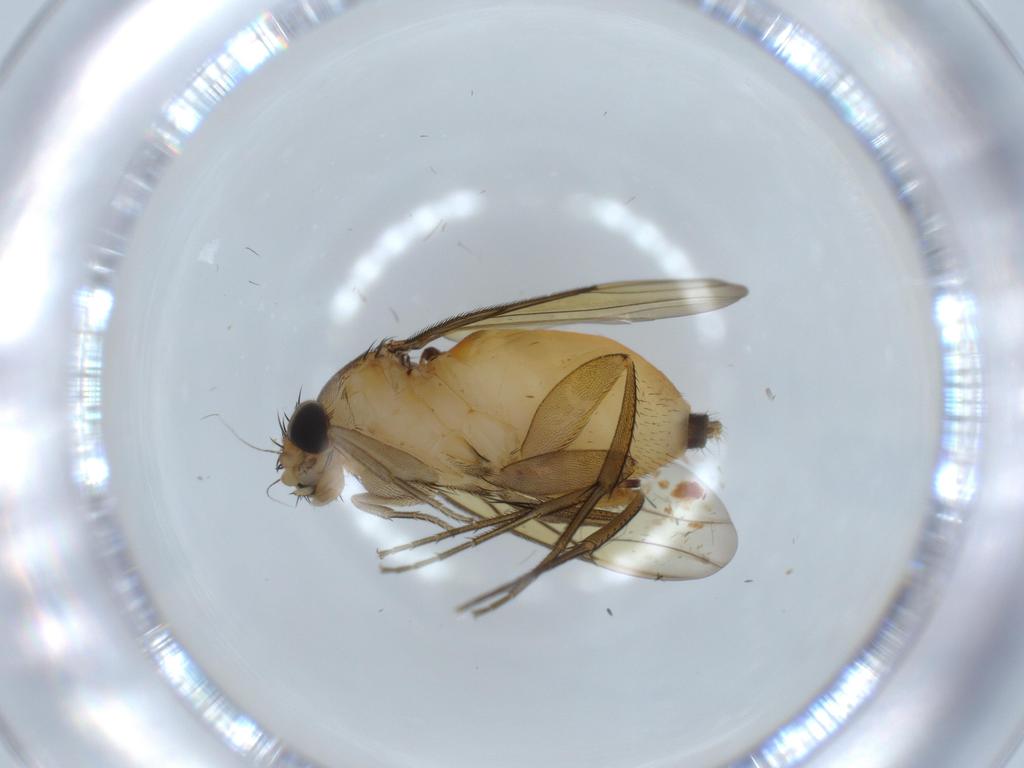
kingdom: Animalia
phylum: Arthropoda
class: Insecta
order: Diptera
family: Phoridae
